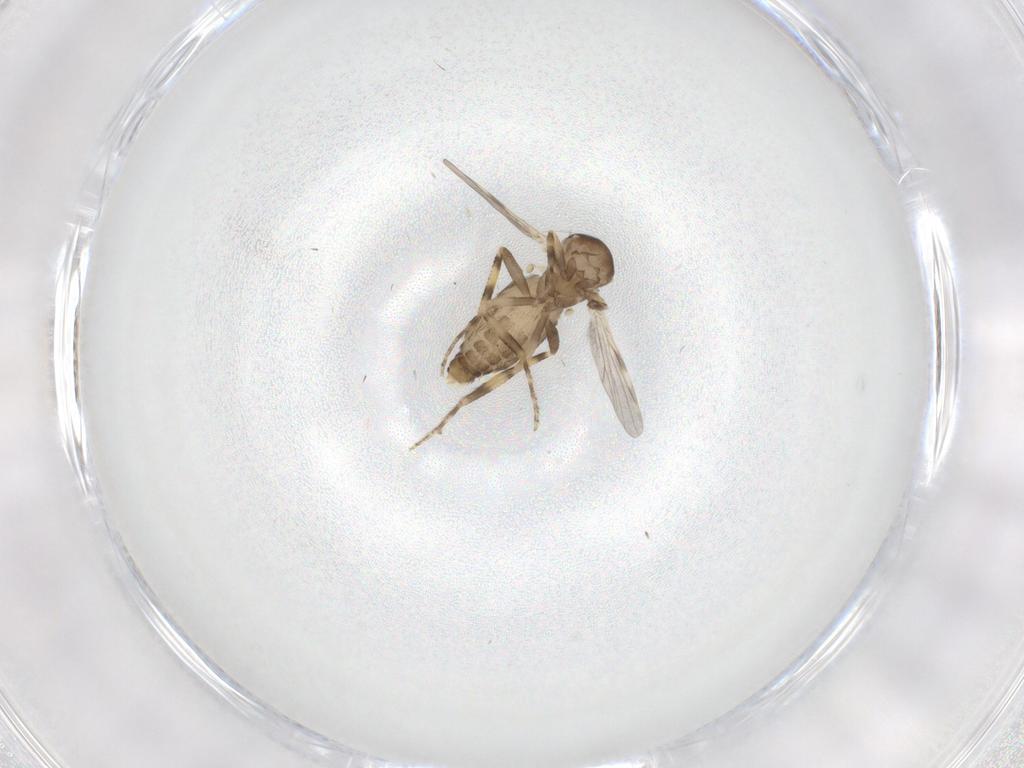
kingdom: Animalia
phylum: Arthropoda
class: Insecta
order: Diptera
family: Ceratopogonidae
